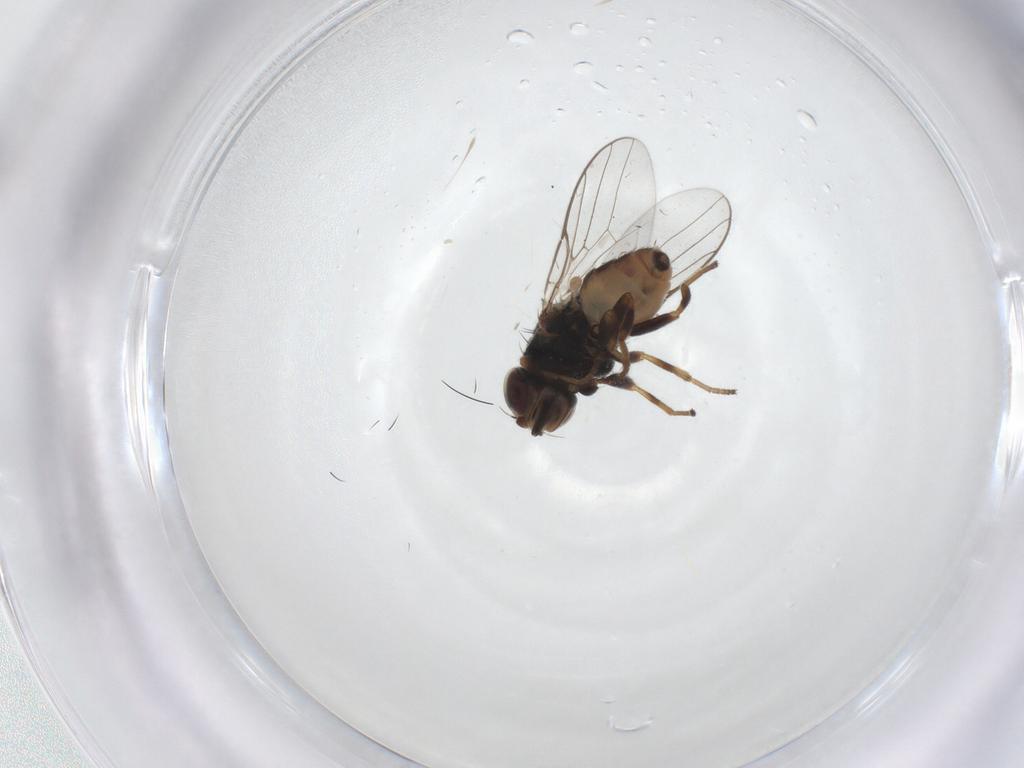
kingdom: Animalia
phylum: Arthropoda
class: Insecta
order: Diptera
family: Chloropidae
